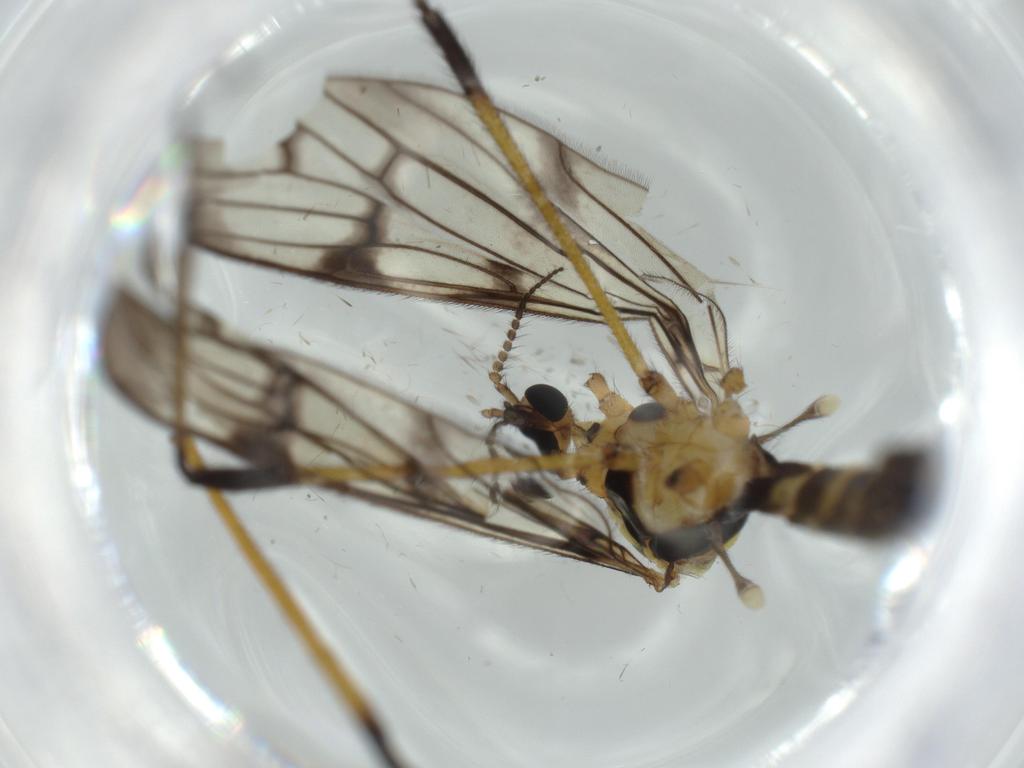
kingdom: Animalia
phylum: Arthropoda
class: Insecta
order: Diptera
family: Limoniidae
